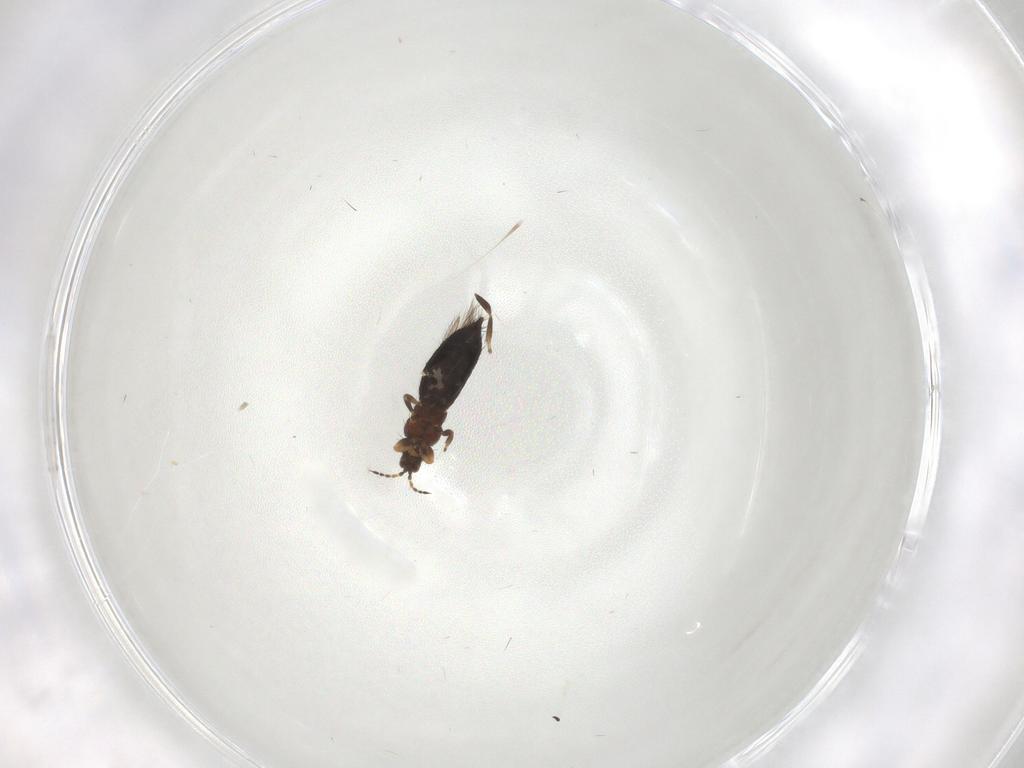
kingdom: Animalia
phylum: Arthropoda
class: Insecta
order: Thysanoptera
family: Thripidae
